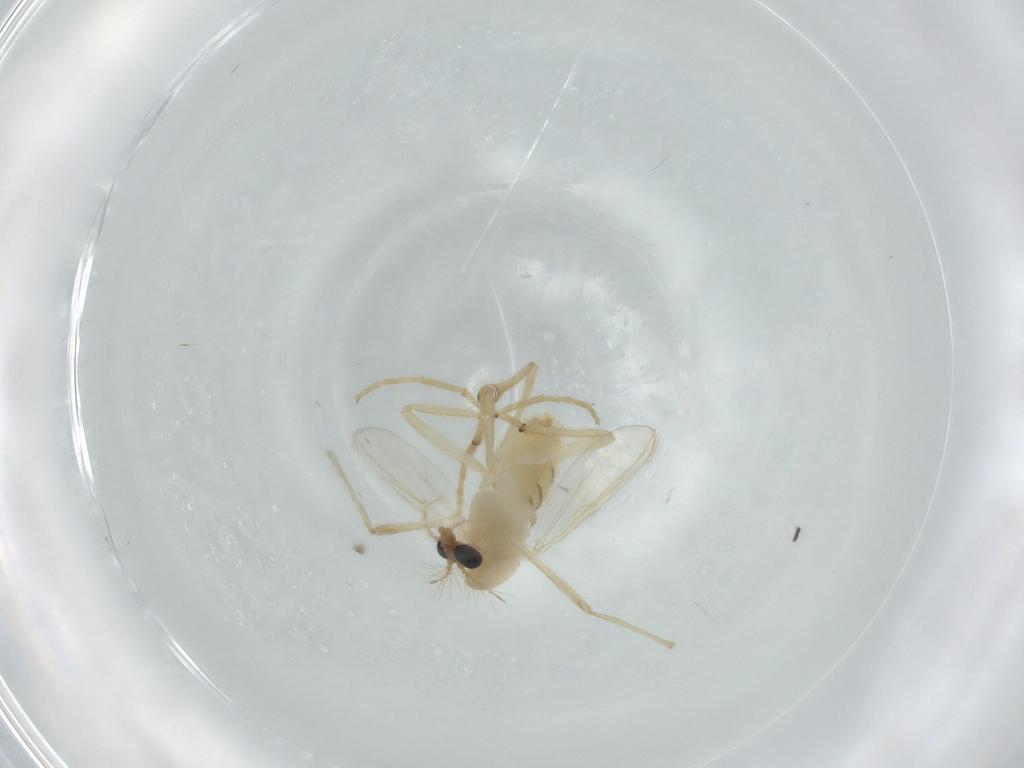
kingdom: Animalia
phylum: Arthropoda
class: Insecta
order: Diptera
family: Chironomidae
